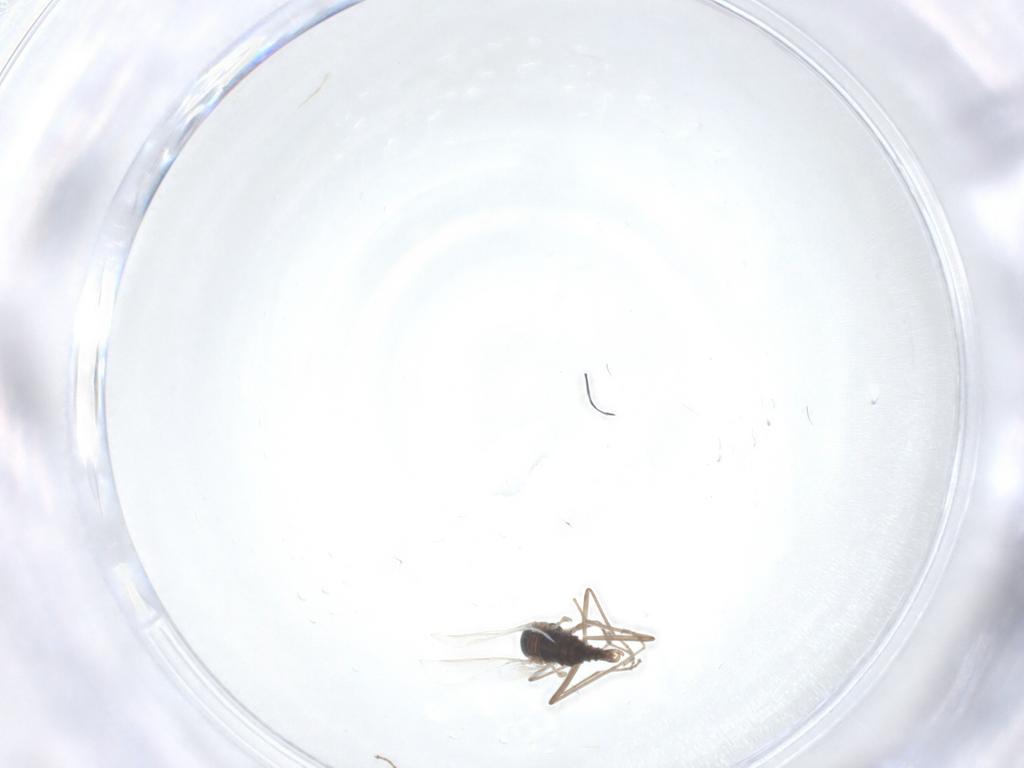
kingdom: Animalia
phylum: Arthropoda
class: Insecta
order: Diptera
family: Cecidomyiidae
